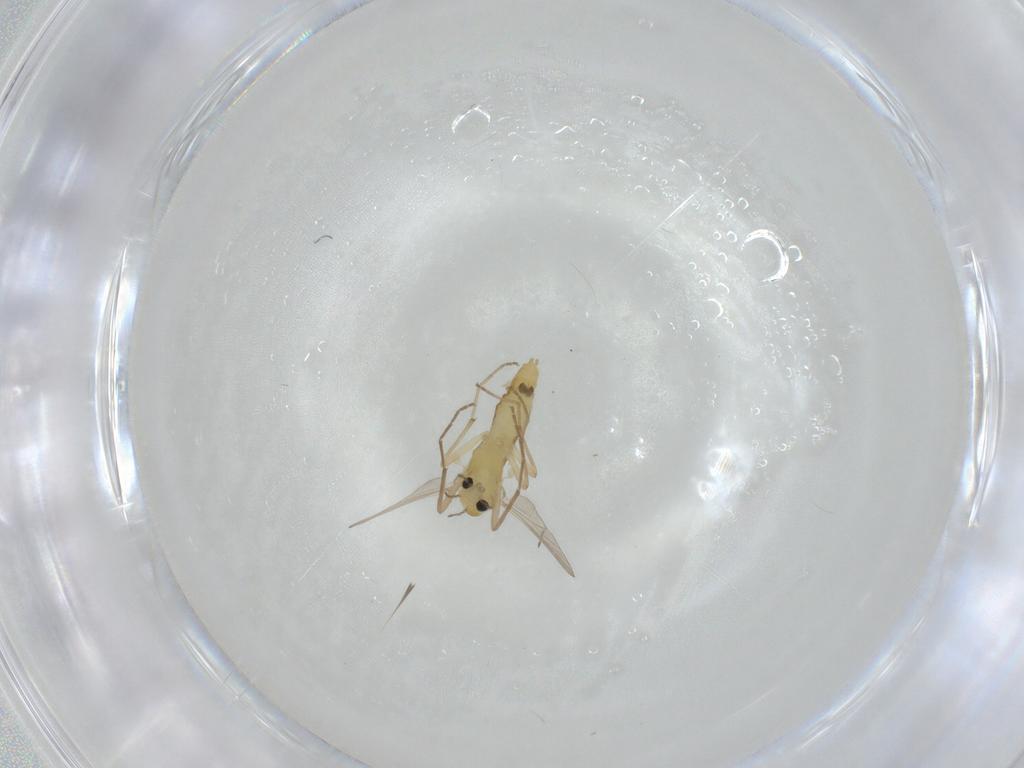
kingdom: Animalia
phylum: Arthropoda
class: Insecta
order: Diptera
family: Chironomidae
